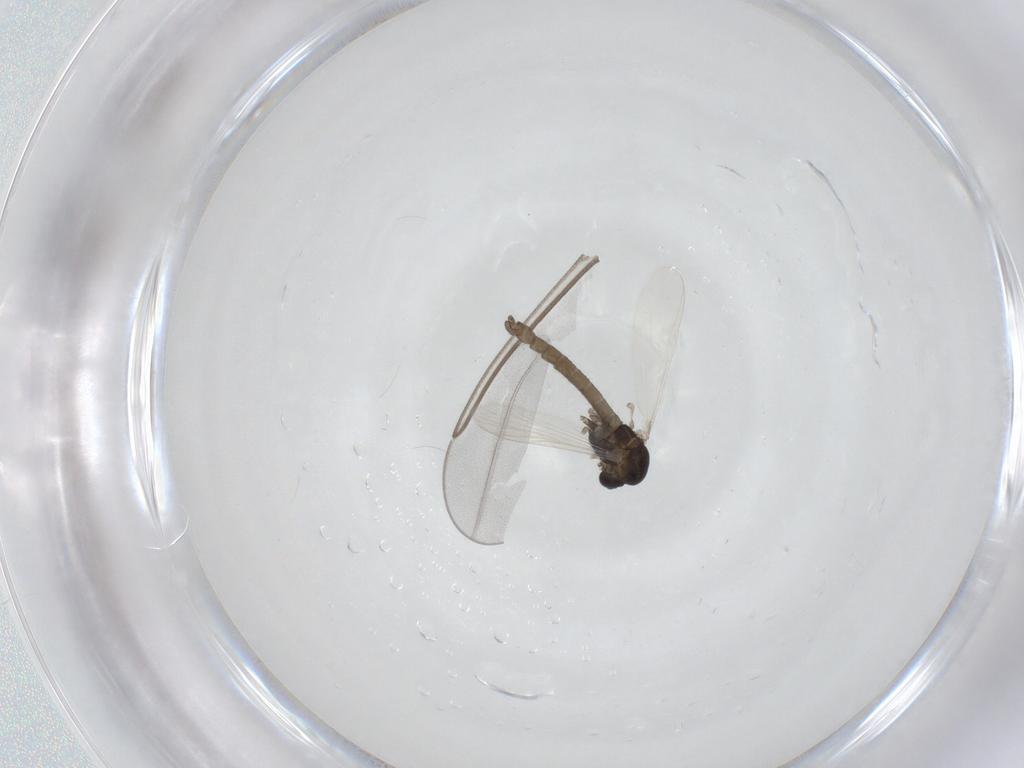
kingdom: Animalia
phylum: Arthropoda
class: Insecta
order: Diptera
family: Chironomidae
